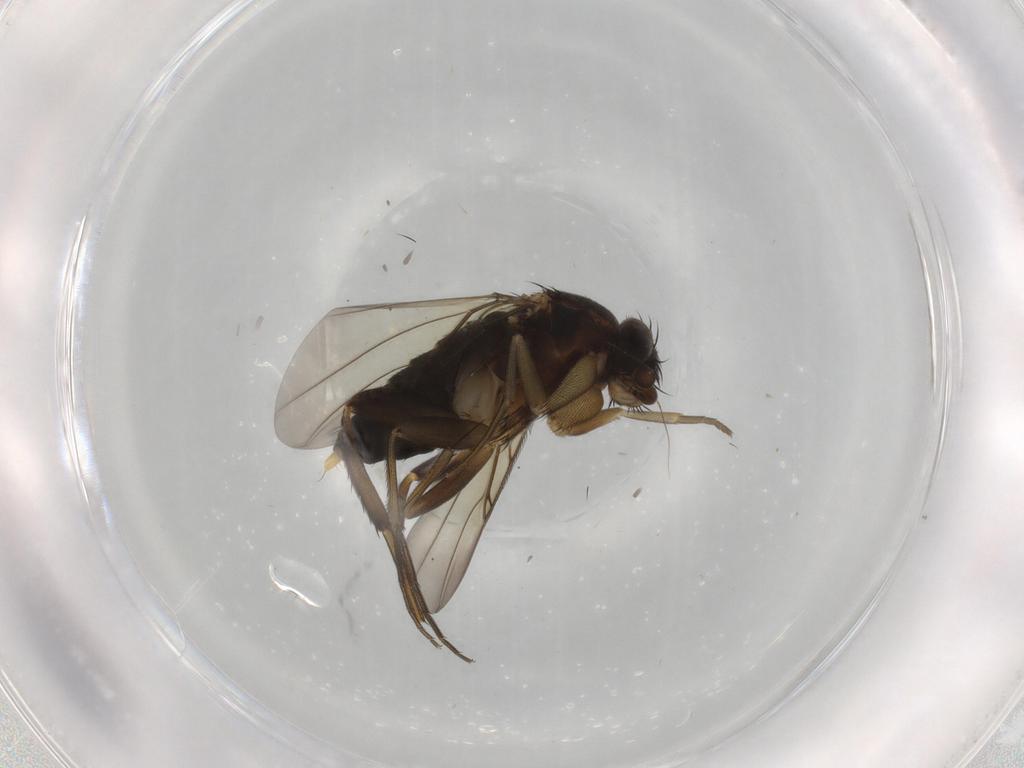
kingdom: Animalia
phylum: Arthropoda
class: Insecta
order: Diptera
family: Phoridae
